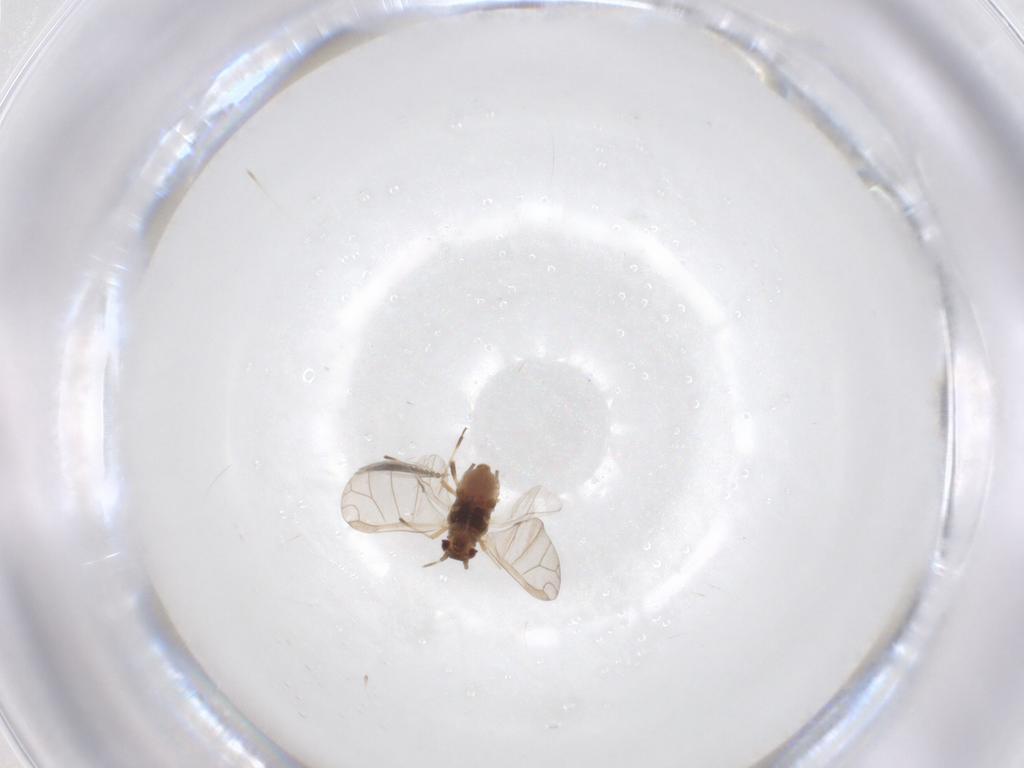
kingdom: Animalia
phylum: Arthropoda
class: Insecta
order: Hemiptera
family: Aphididae
